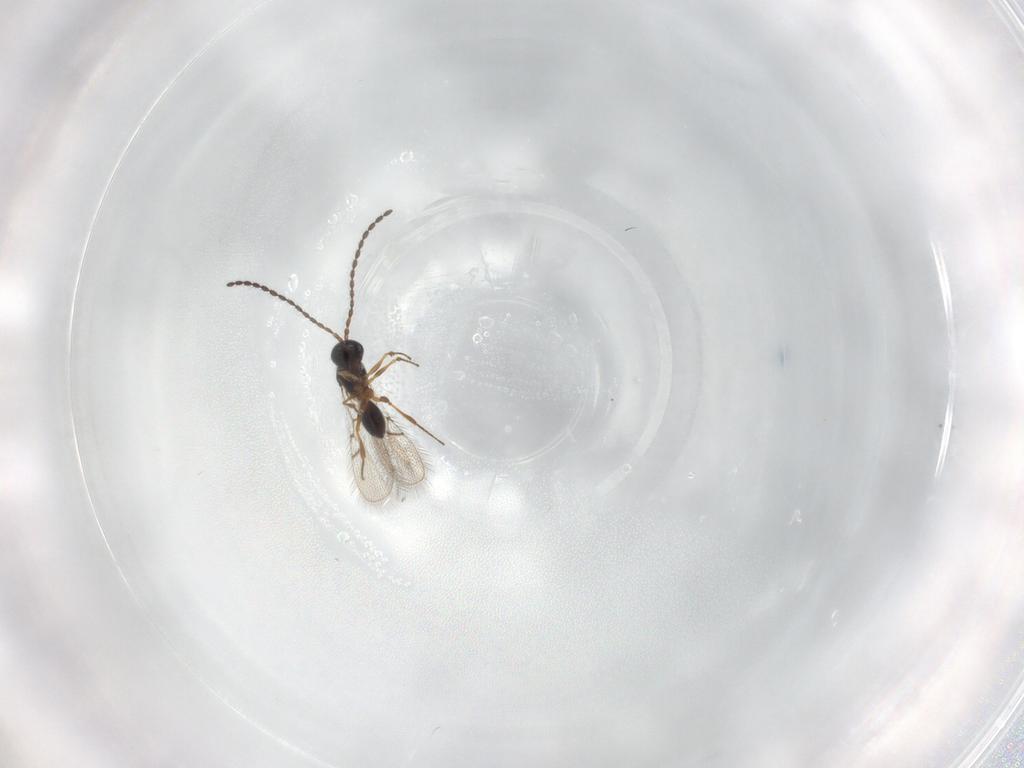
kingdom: Animalia
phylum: Arthropoda
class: Insecta
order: Hymenoptera
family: Figitidae
